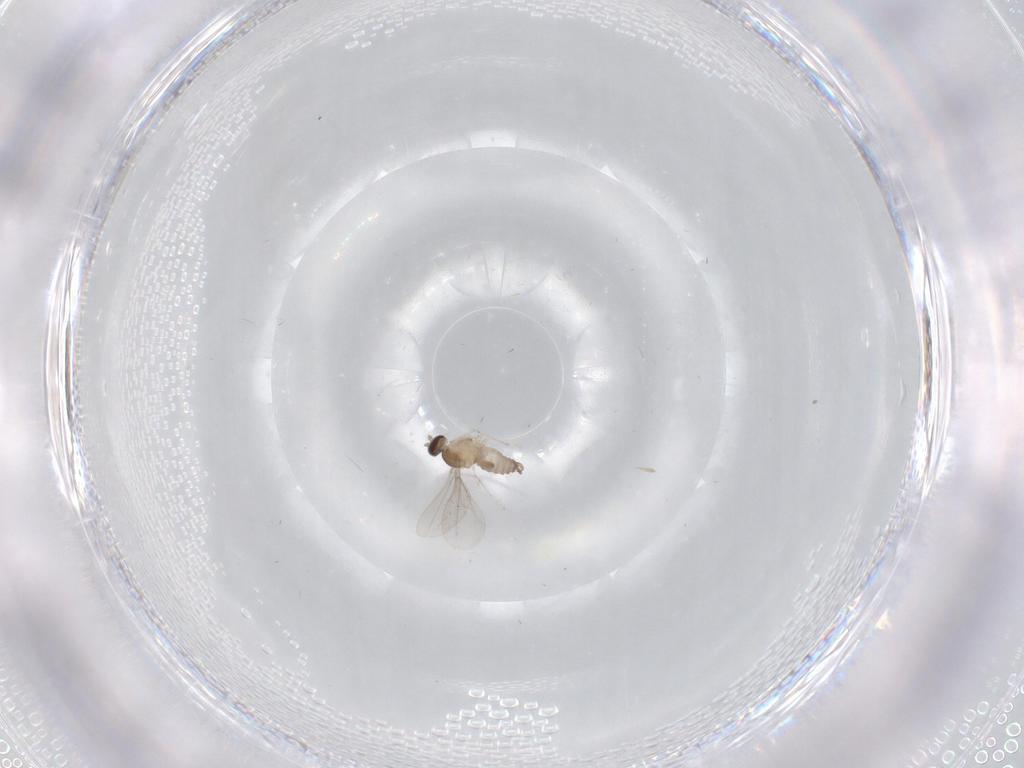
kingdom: Animalia
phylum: Arthropoda
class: Insecta
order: Diptera
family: Cecidomyiidae
